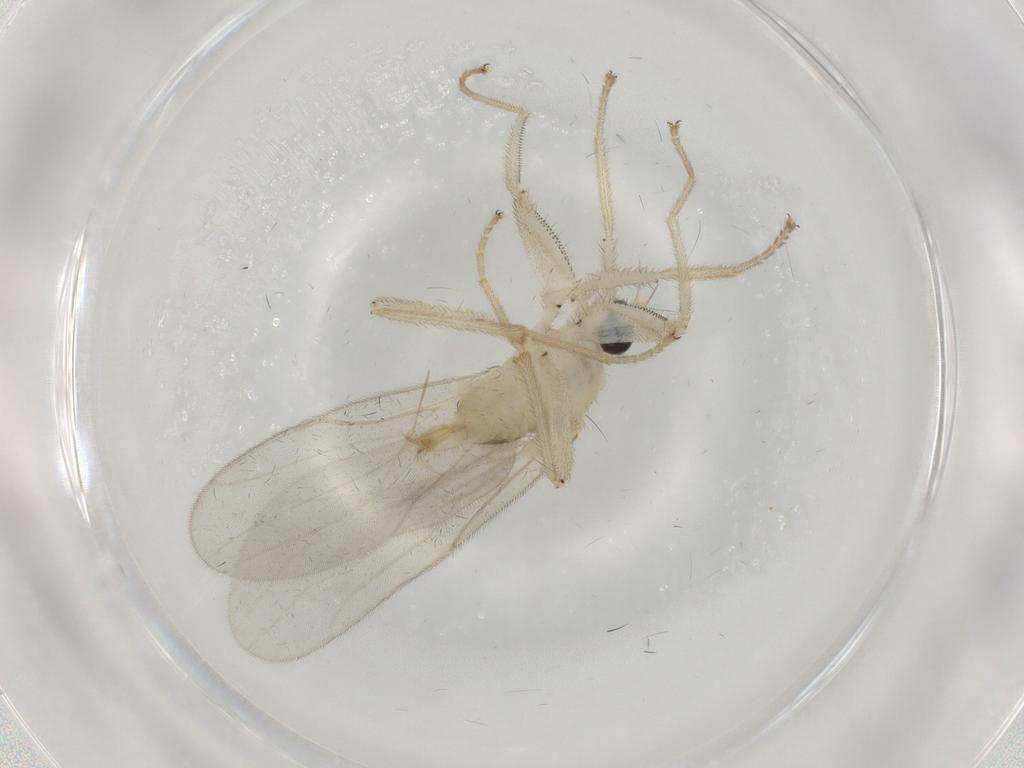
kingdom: Animalia
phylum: Arthropoda
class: Insecta
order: Diptera
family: Hybotidae
